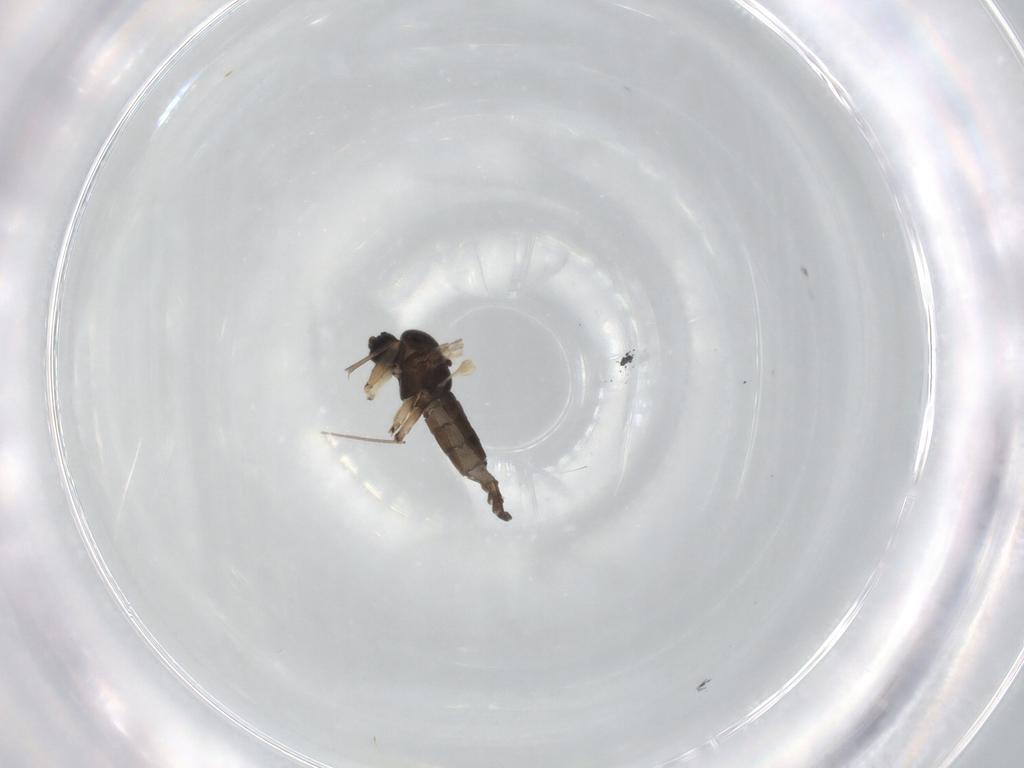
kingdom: Animalia
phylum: Arthropoda
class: Insecta
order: Diptera
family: Sciaridae
